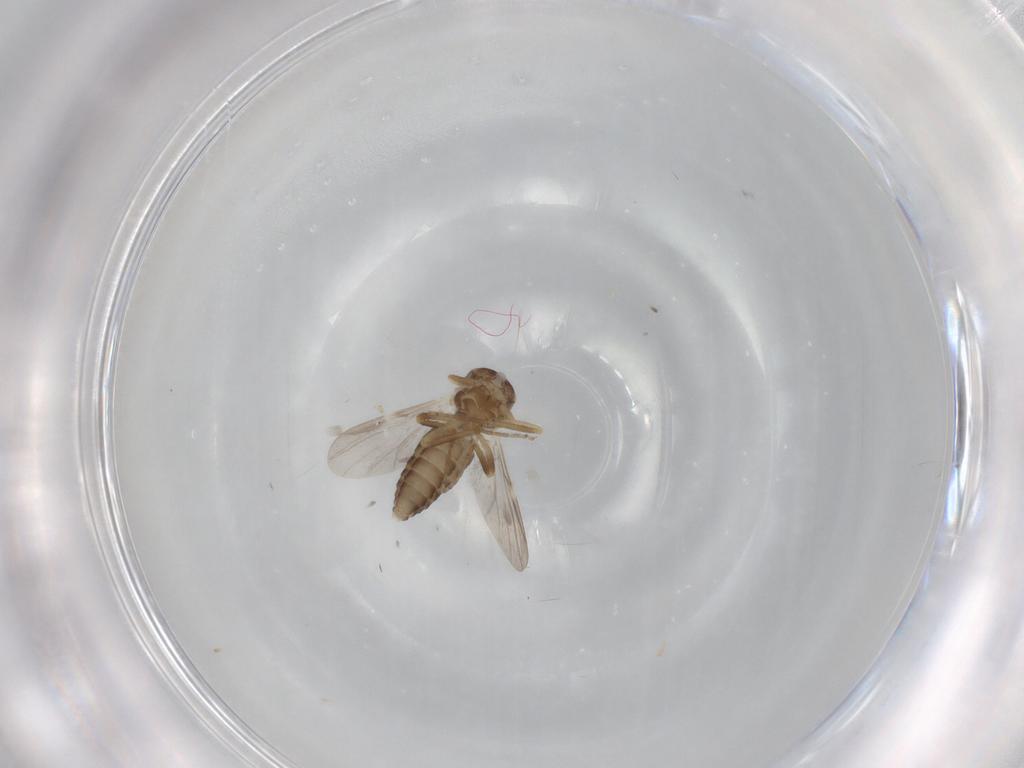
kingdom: Animalia
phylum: Arthropoda
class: Insecta
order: Diptera
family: Ceratopogonidae
